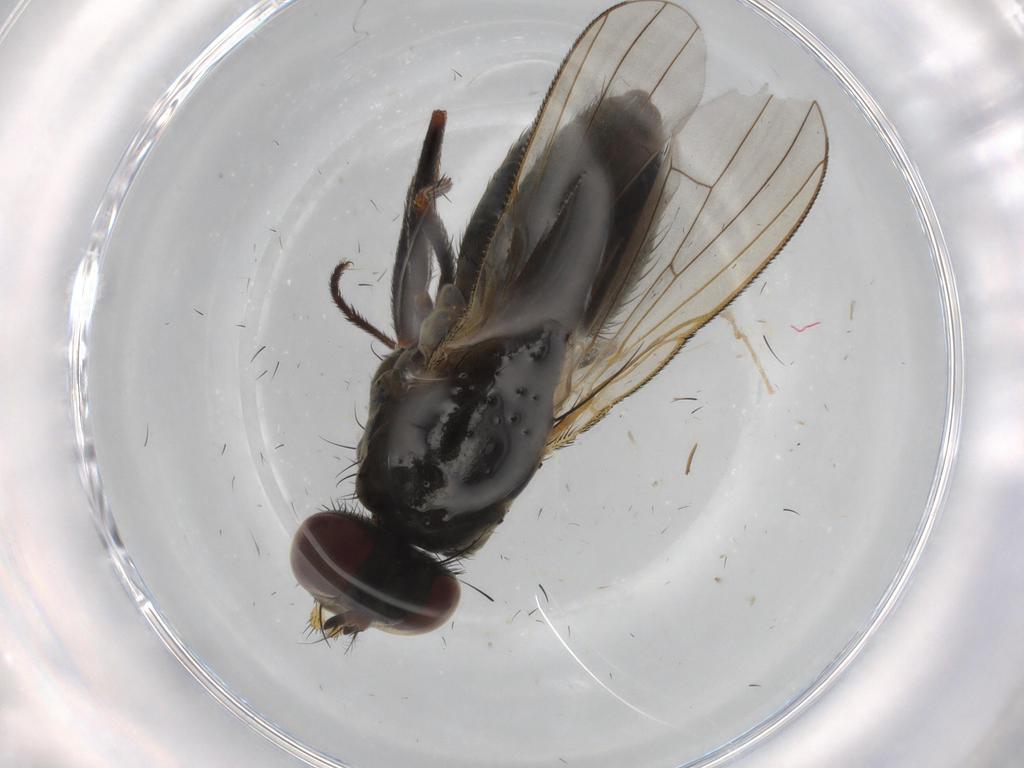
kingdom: Animalia
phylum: Arthropoda
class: Insecta
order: Diptera
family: Muscidae
